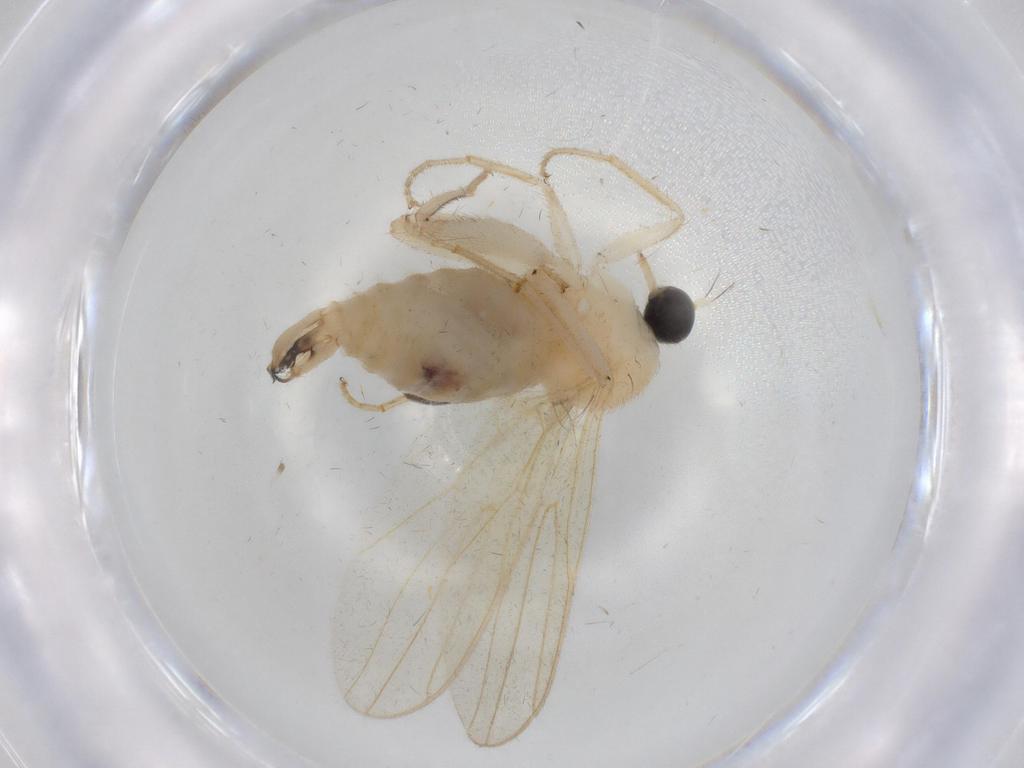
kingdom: Animalia
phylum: Arthropoda
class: Insecta
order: Diptera
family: Hybotidae
